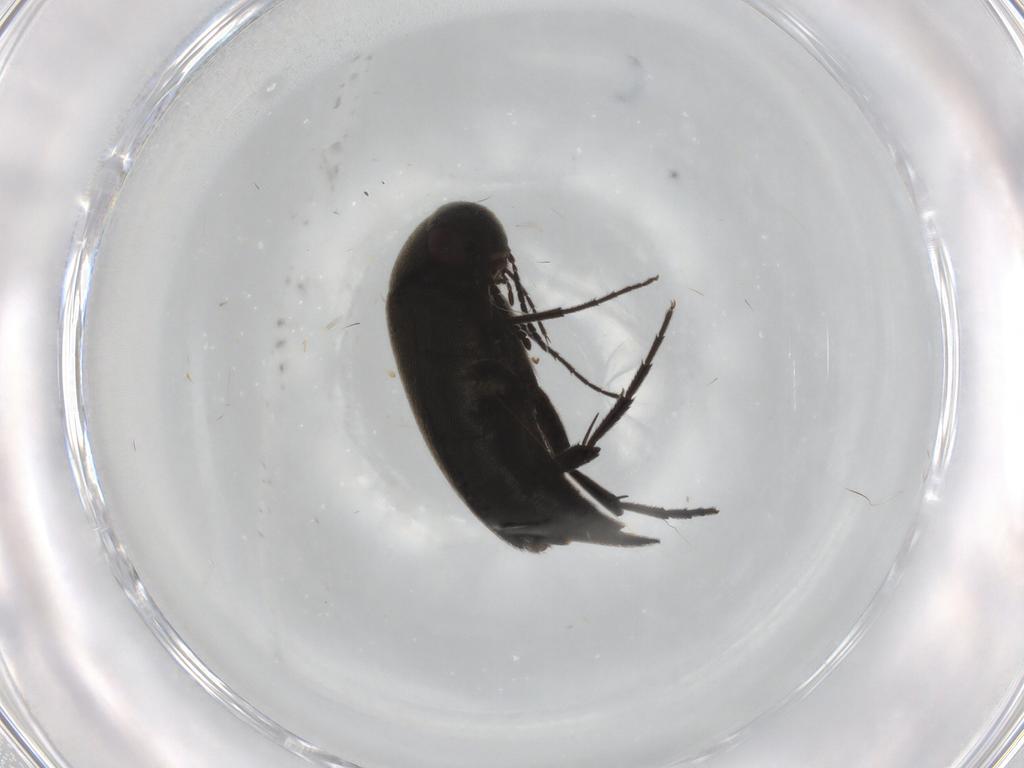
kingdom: Animalia
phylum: Arthropoda
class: Insecta
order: Coleoptera
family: Mordellidae
